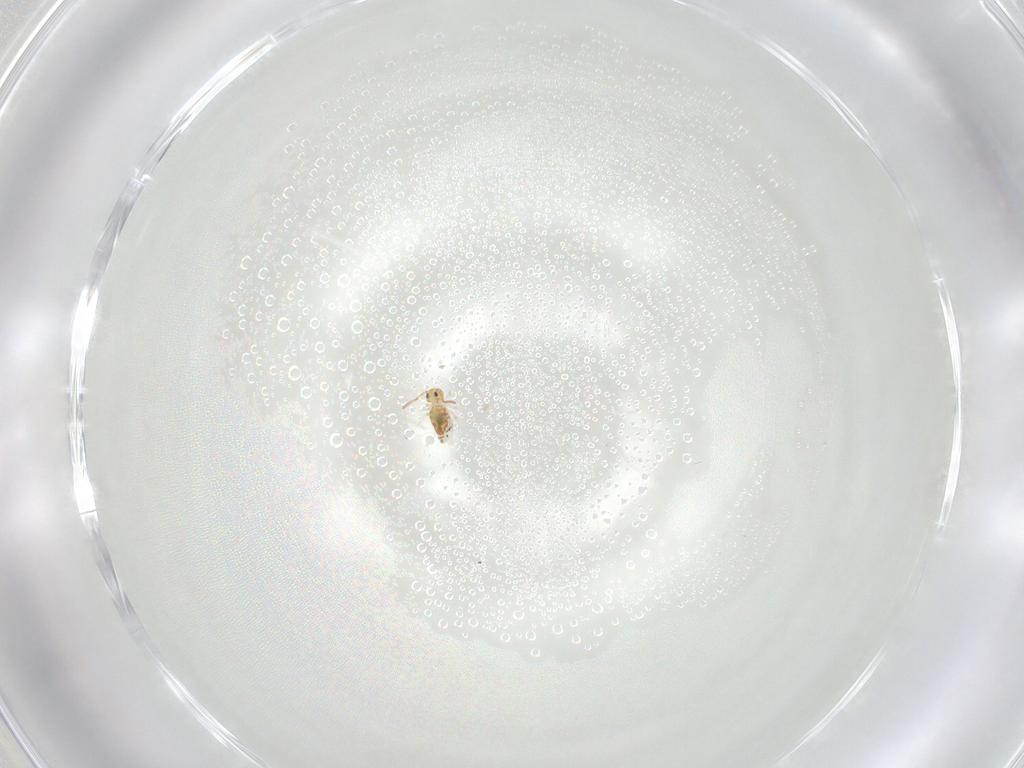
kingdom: Animalia
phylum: Arthropoda
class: Collembola
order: Symphypleona
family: Bourletiellidae
